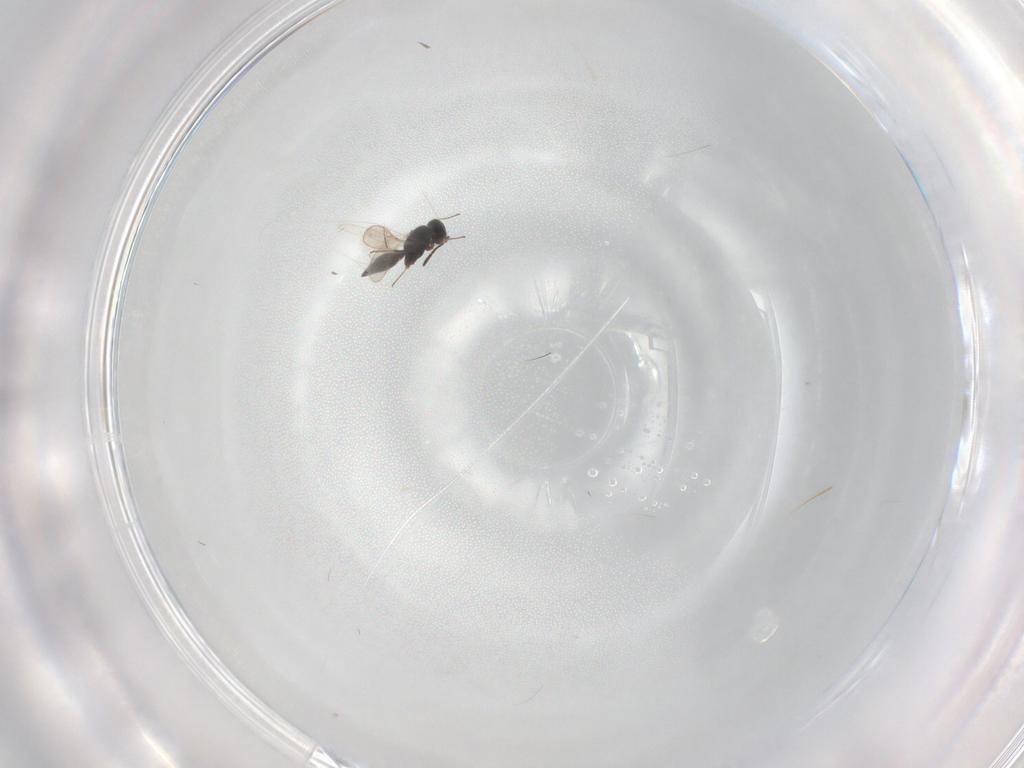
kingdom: Animalia
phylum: Arthropoda
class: Insecta
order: Hymenoptera
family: Scelionidae
